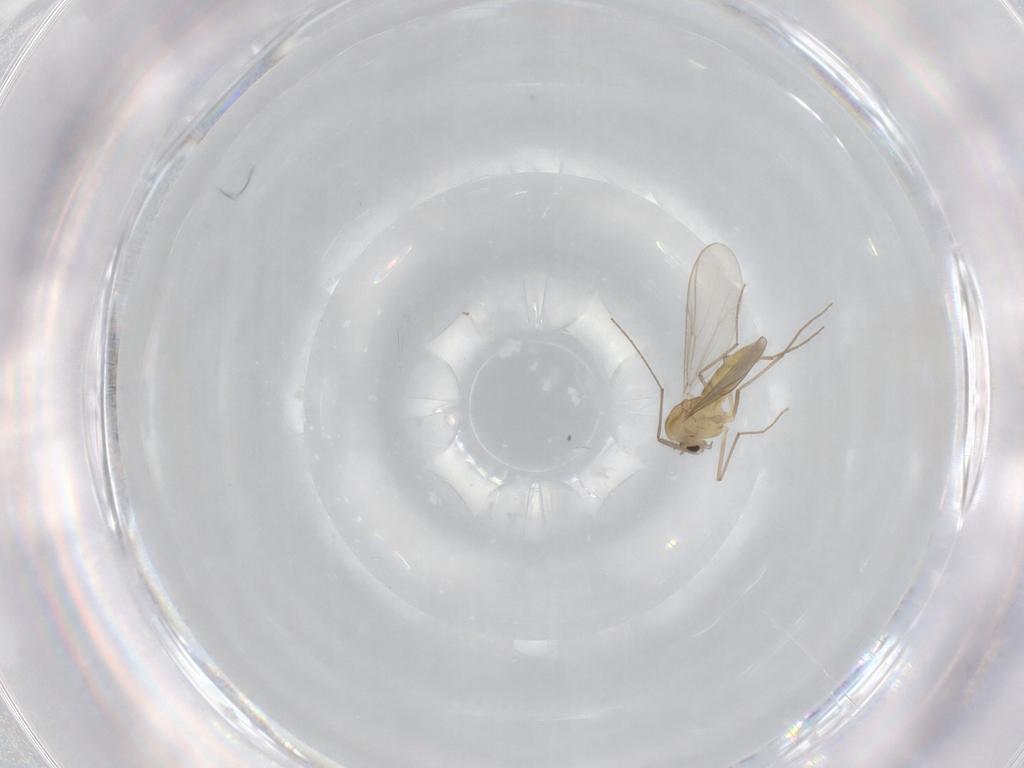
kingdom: Animalia
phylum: Arthropoda
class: Insecta
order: Diptera
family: Chironomidae
